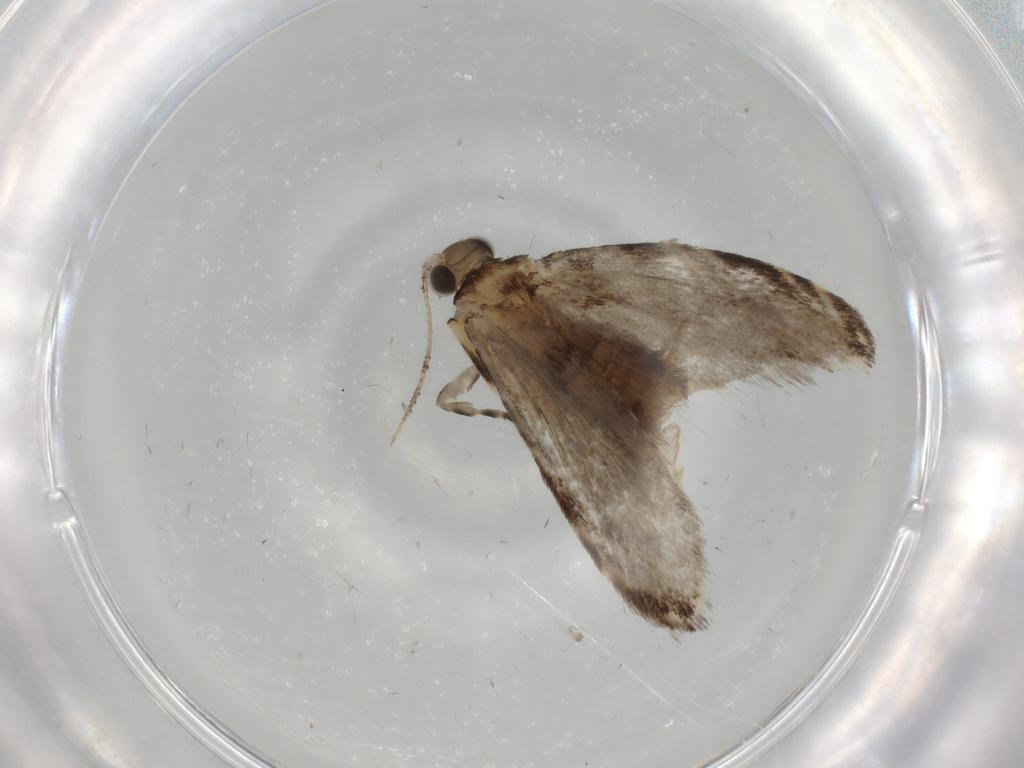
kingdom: Animalia
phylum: Arthropoda
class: Insecta
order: Lepidoptera
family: Tineidae
